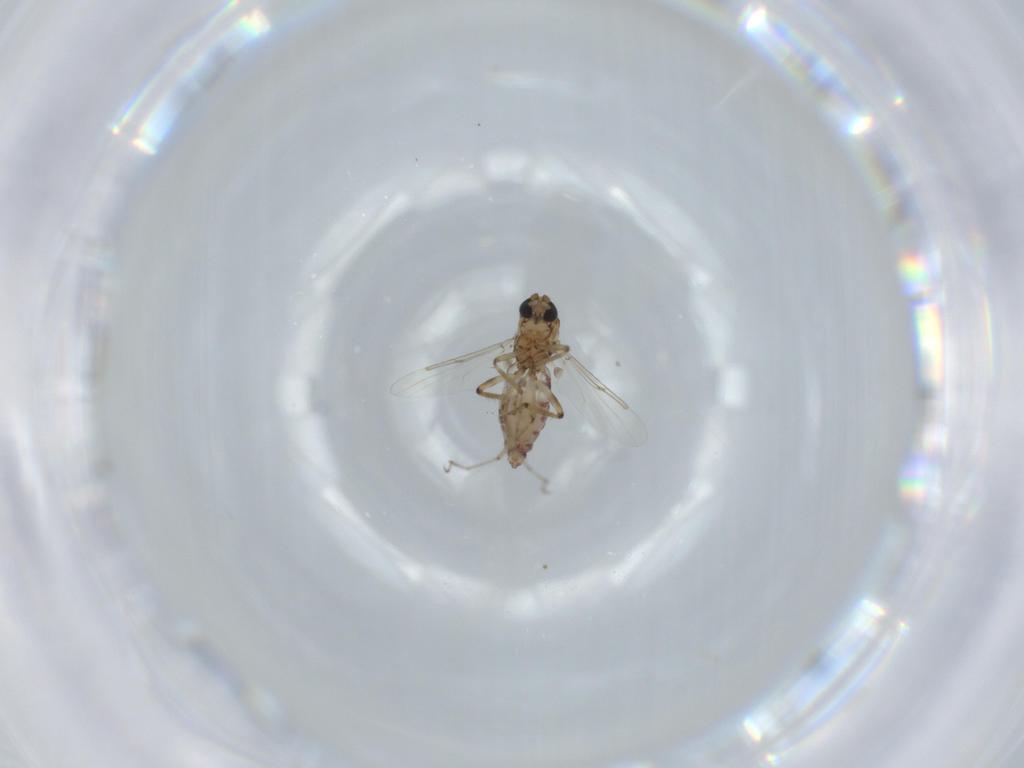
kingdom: Animalia
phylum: Arthropoda
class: Insecta
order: Diptera
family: Ceratopogonidae
